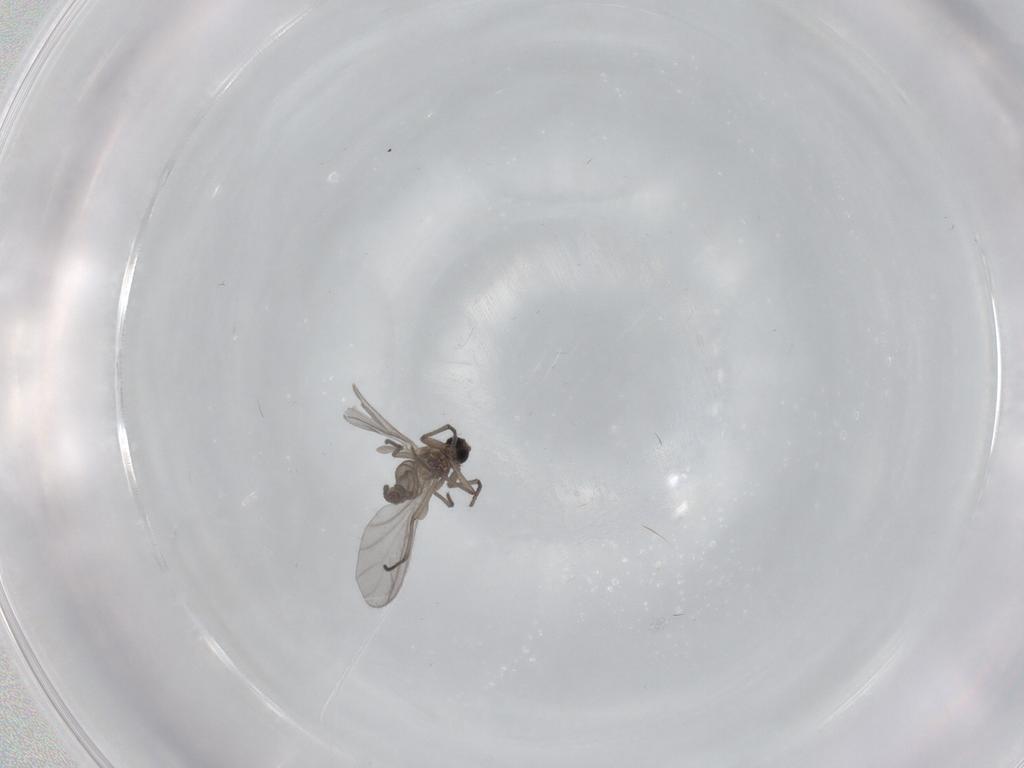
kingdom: Animalia
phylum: Arthropoda
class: Insecta
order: Diptera
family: Sciaridae
